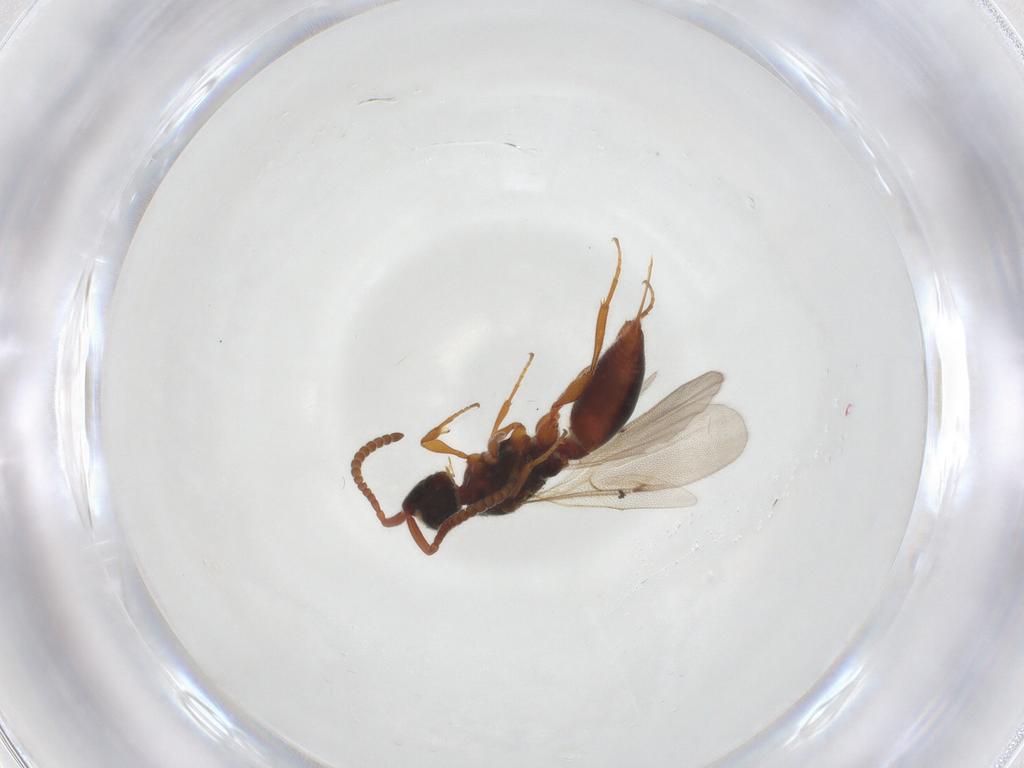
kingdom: Animalia
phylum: Arthropoda
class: Insecta
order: Hymenoptera
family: Diapriidae
